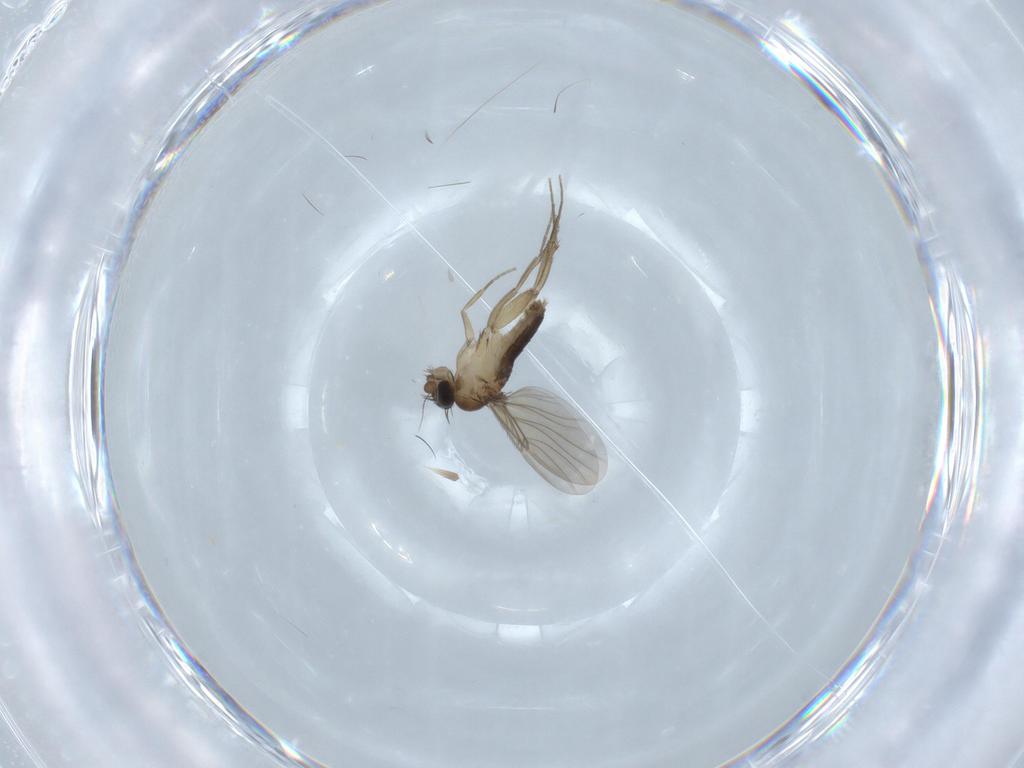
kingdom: Animalia
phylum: Arthropoda
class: Insecta
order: Diptera
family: Phoridae
